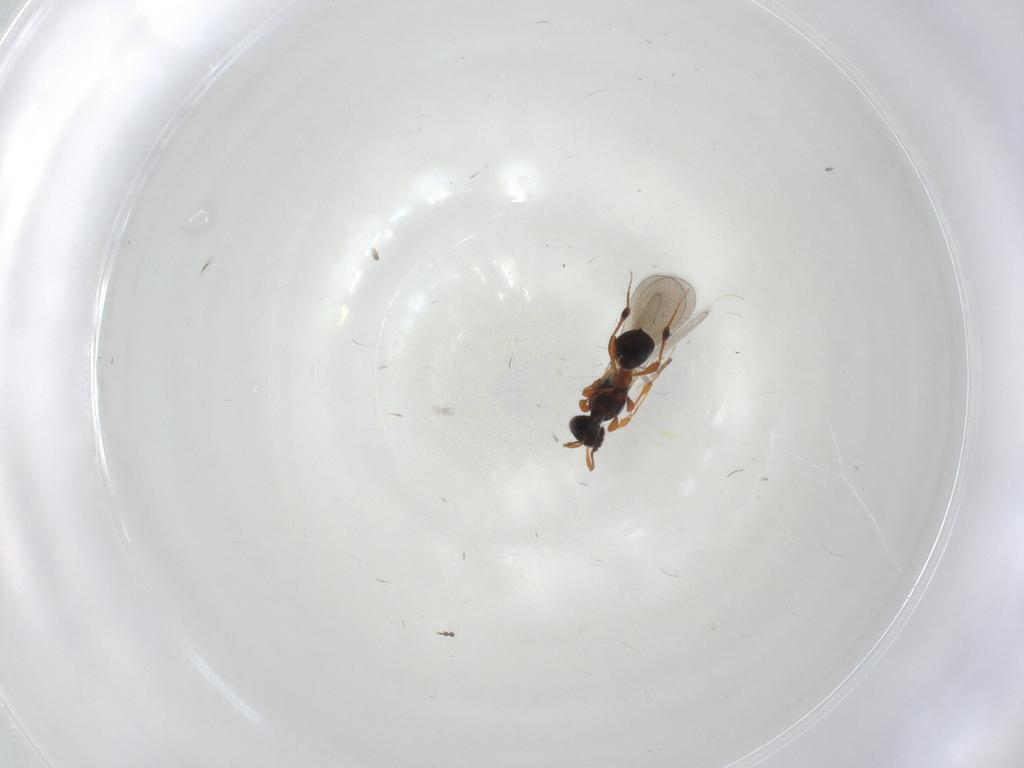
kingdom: Animalia
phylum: Arthropoda
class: Insecta
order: Hymenoptera
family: Platygastridae
